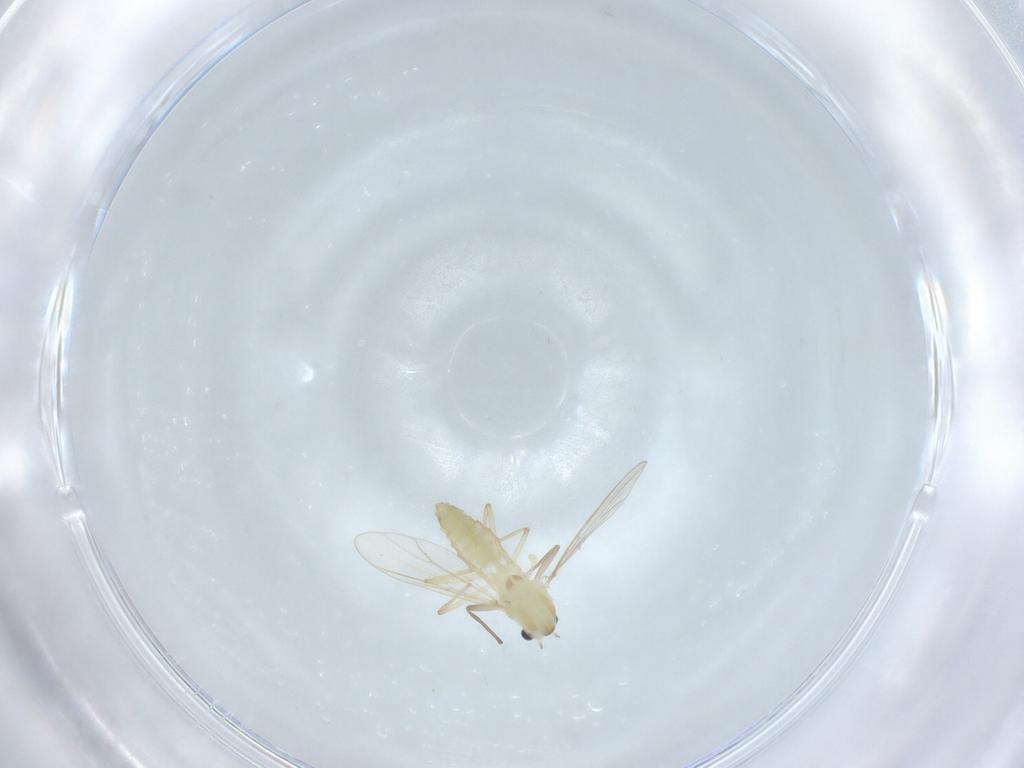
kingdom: Animalia
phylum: Arthropoda
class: Insecta
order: Diptera
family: Chironomidae
